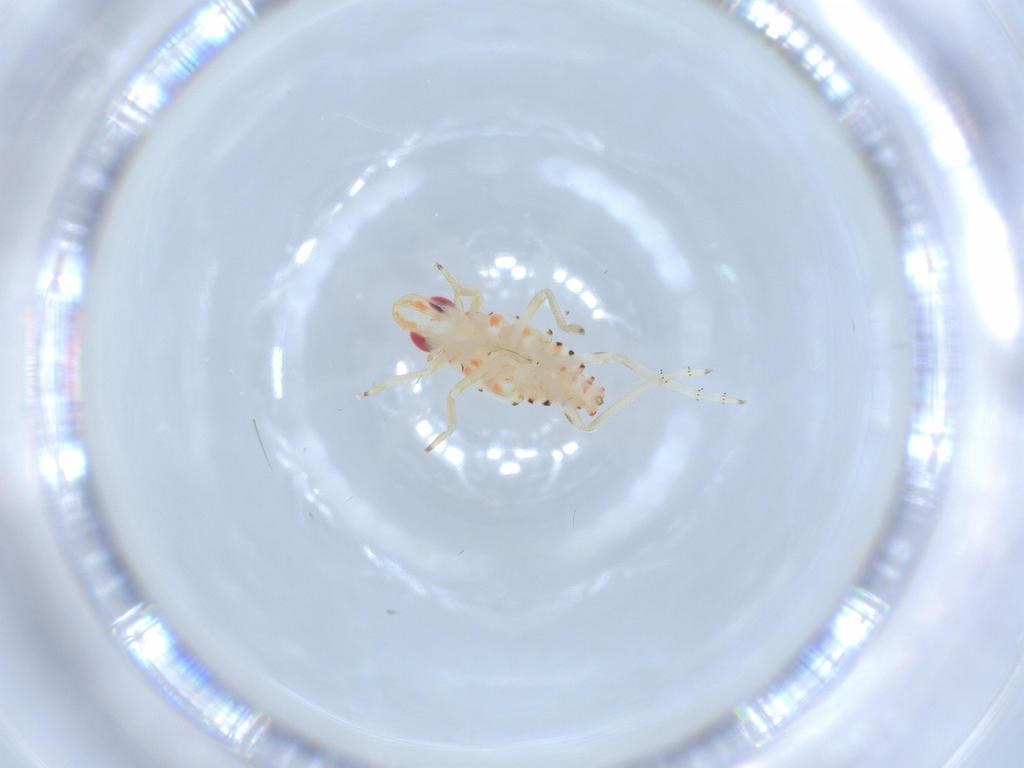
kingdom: Animalia
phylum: Arthropoda
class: Insecta
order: Hemiptera
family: Tropiduchidae
